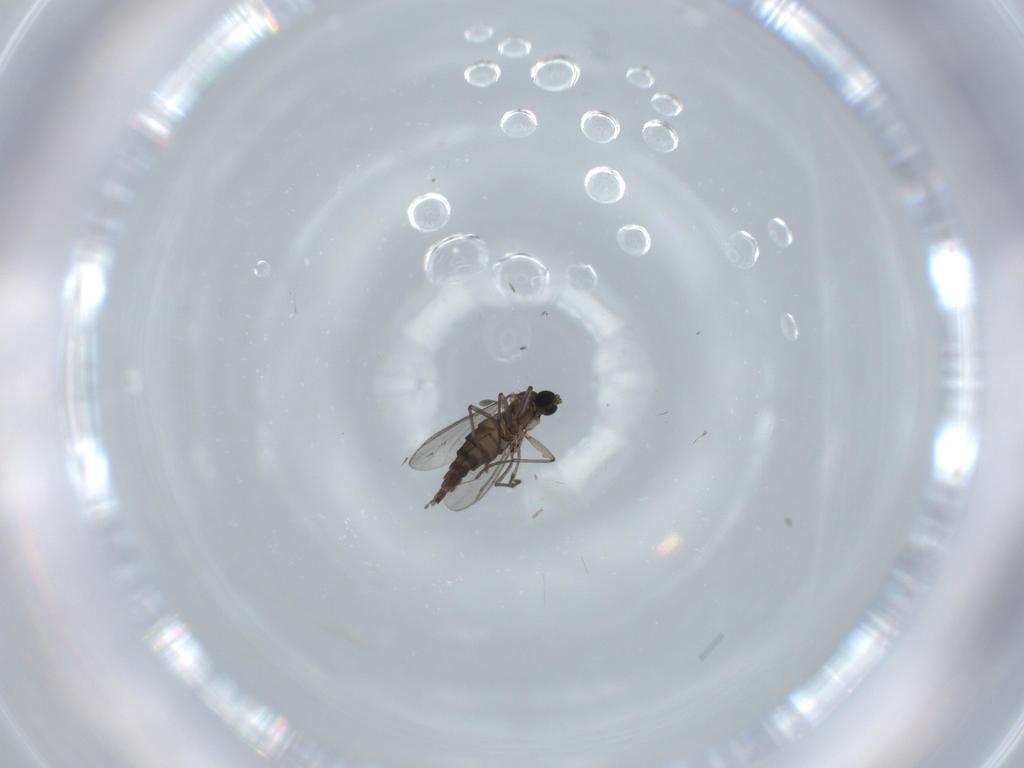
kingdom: Animalia
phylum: Arthropoda
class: Insecta
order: Diptera
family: Sciaridae
